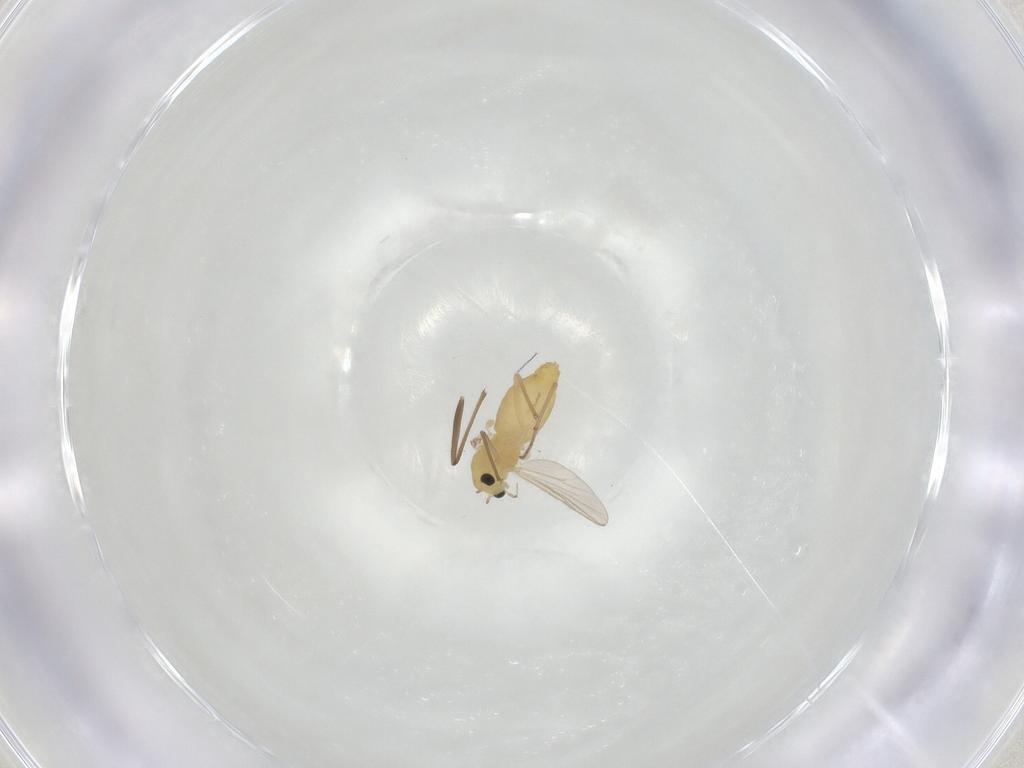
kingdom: Animalia
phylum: Arthropoda
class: Insecta
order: Diptera
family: Chironomidae
